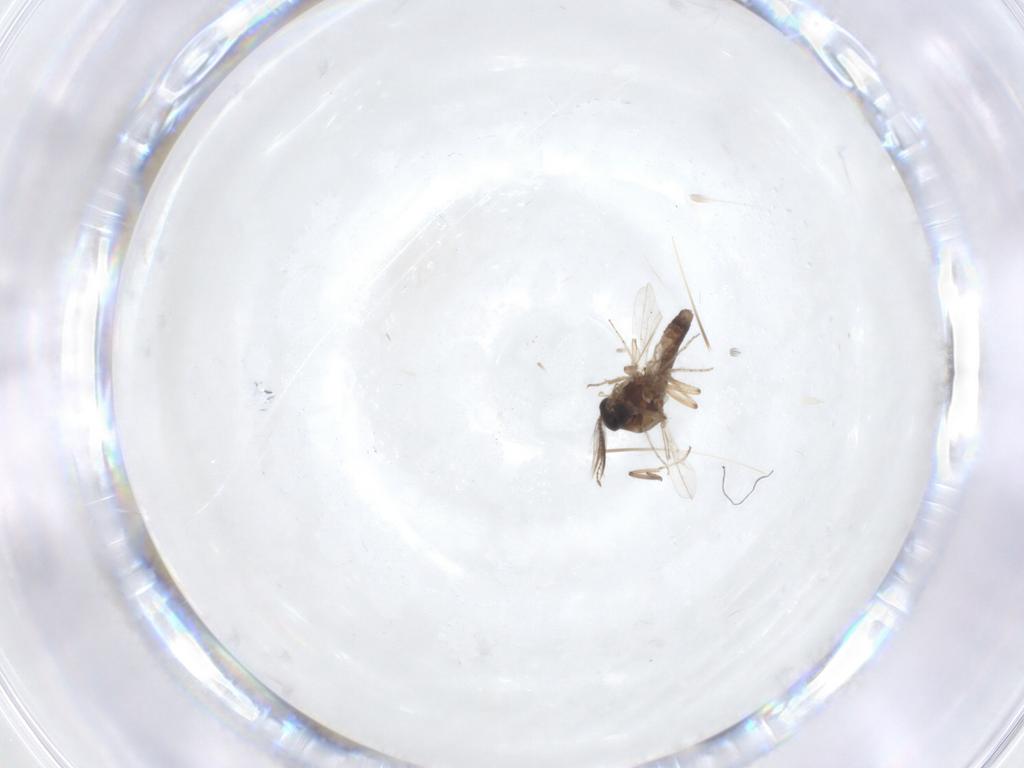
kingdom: Animalia
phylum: Arthropoda
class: Insecta
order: Diptera
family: Ceratopogonidae
